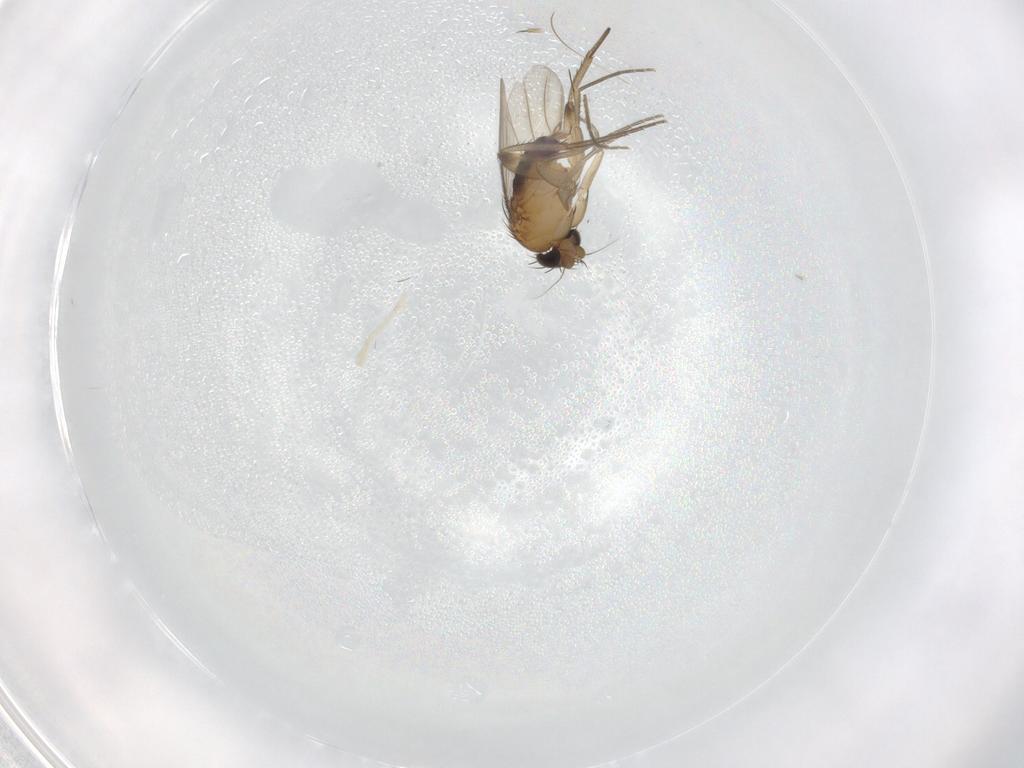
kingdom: Animalia
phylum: Arthropoda
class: Insecta
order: Diptera
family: Phoridae
